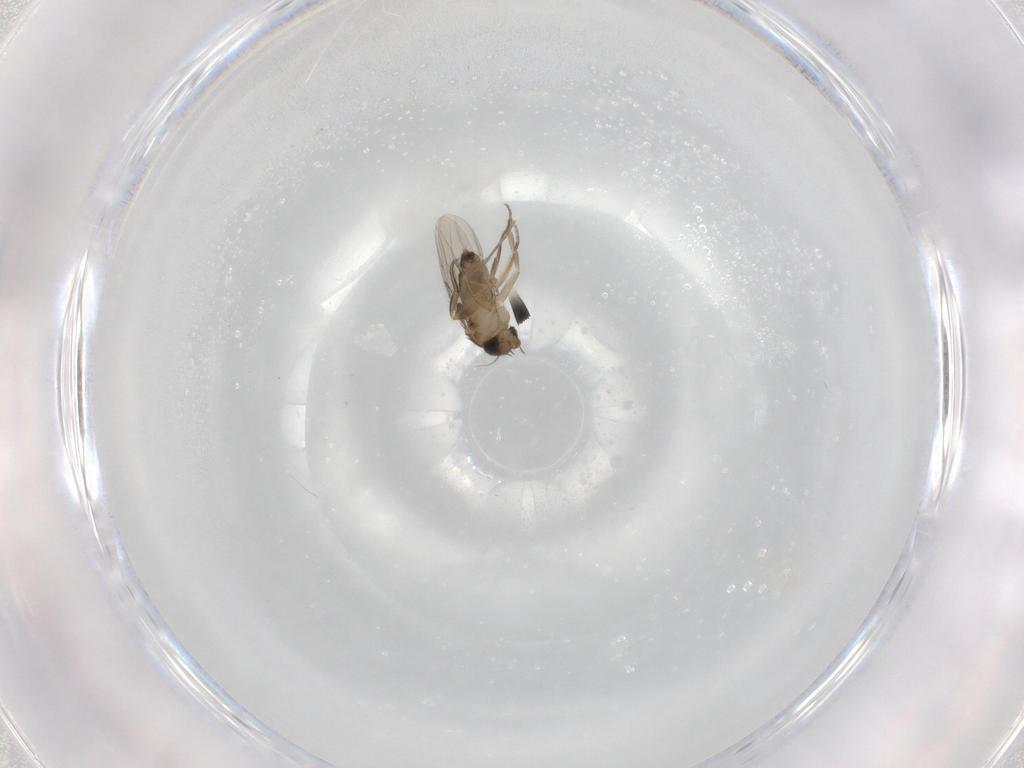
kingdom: Animalia
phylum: Arthropoda
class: Insecta
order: Diptera
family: Phoridae
